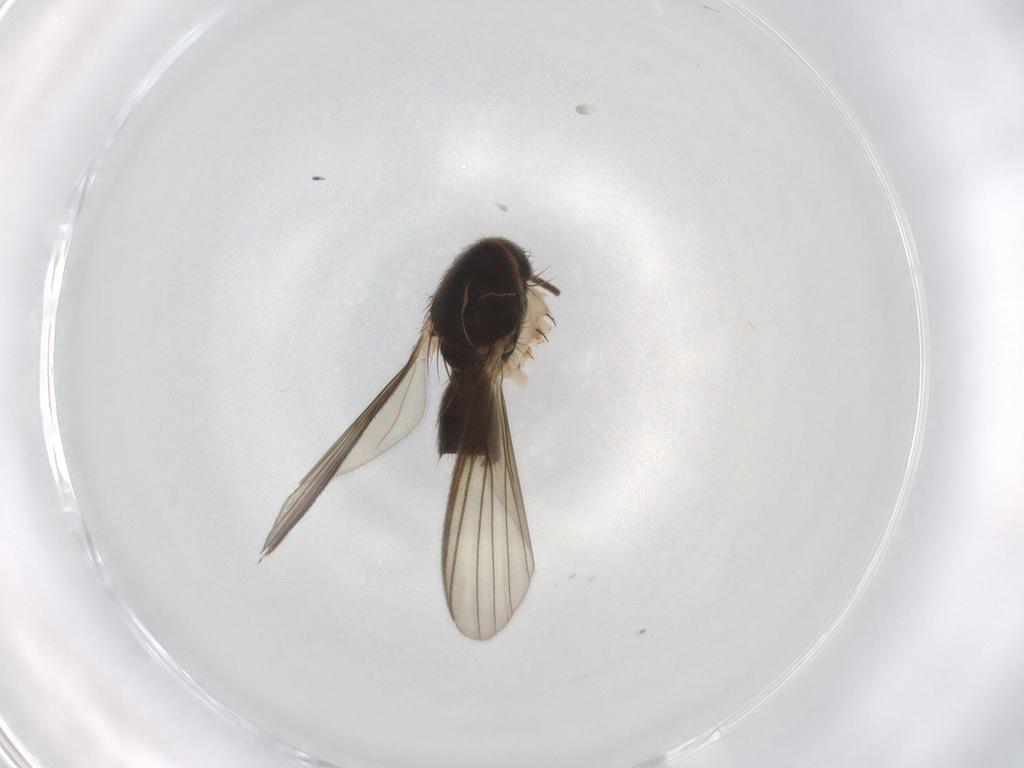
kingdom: Animalia
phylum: Arthropoda
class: Insecta
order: Diptera
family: Mycetophilidae
